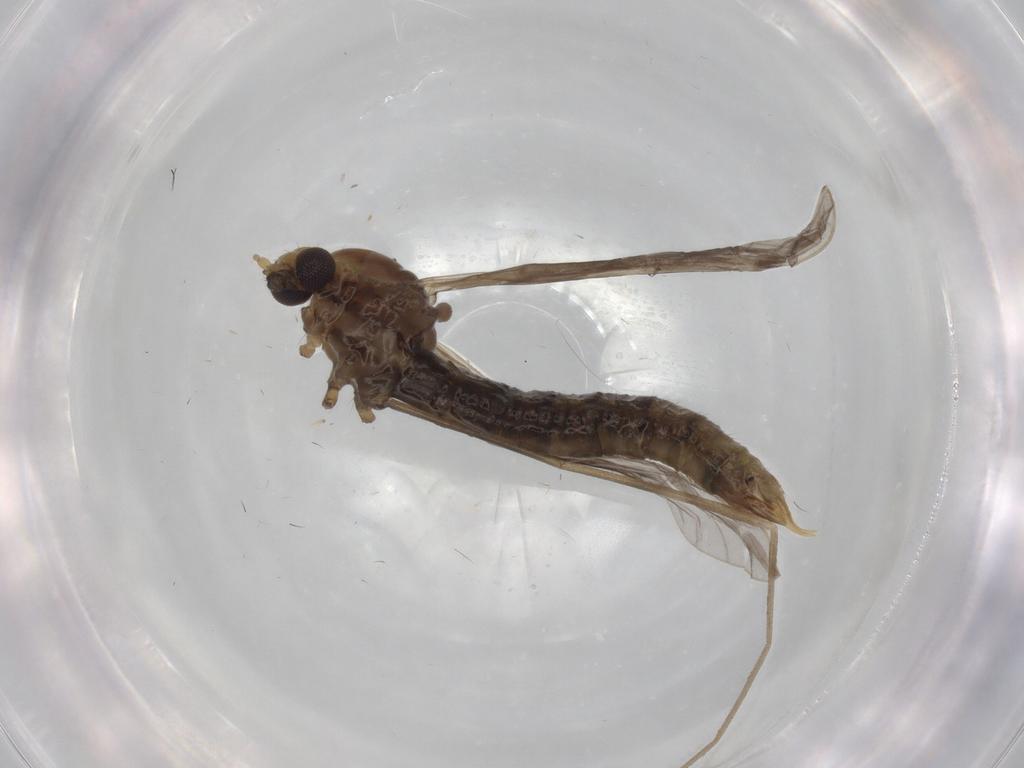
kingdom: Animalia
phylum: Arthropoda
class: Insecta
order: Diptera
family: Limoniidae
